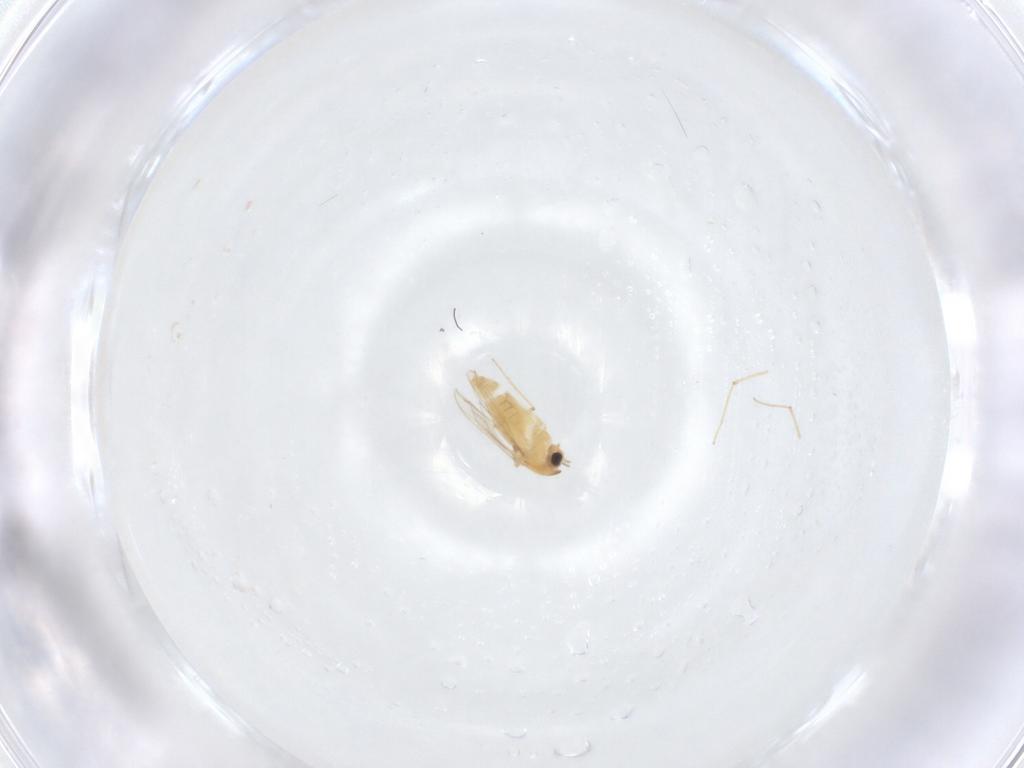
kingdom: Animalia
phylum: Arthropoda
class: Insecta
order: Diptera
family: Chironomidae
